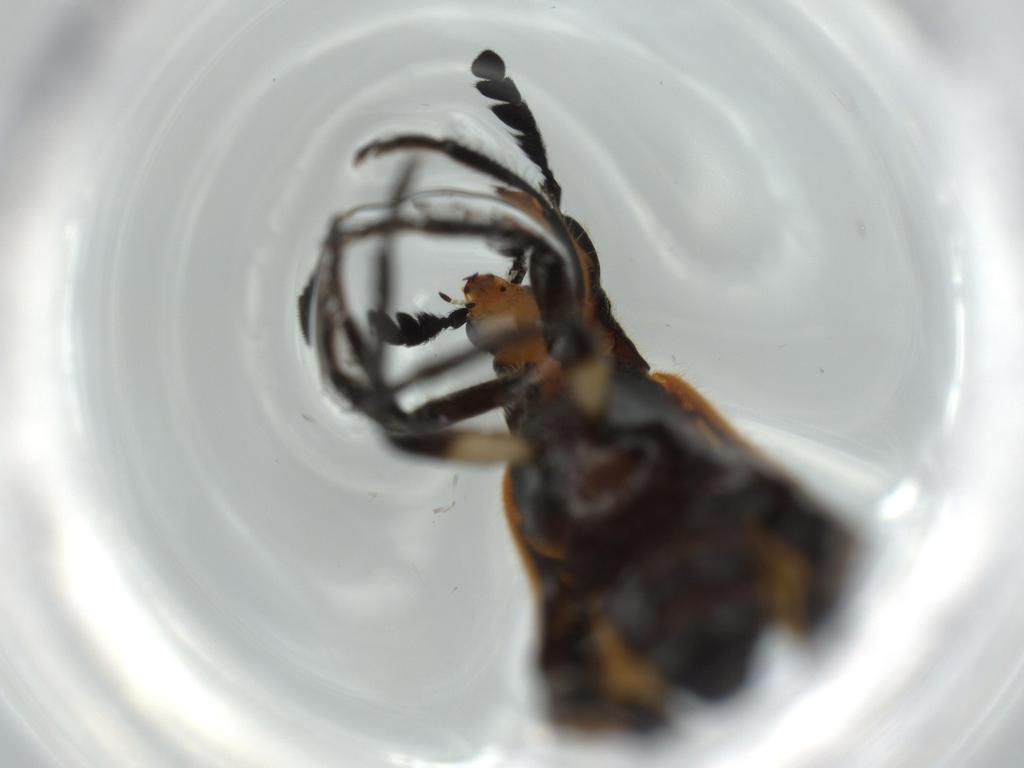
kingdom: Animalia
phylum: Arthropoda
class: Insecta
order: Coleoptera
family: Cleridae
